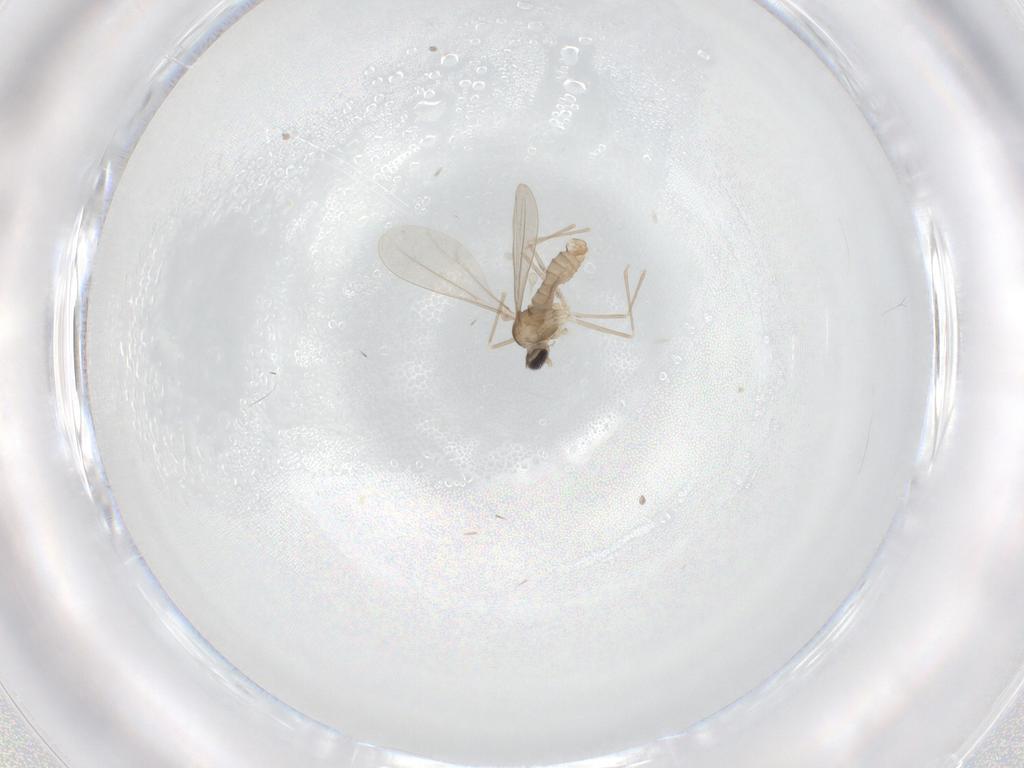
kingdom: Animalia
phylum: Arthropoda
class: Insecta
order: Diptera
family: Cecidomyiidae
